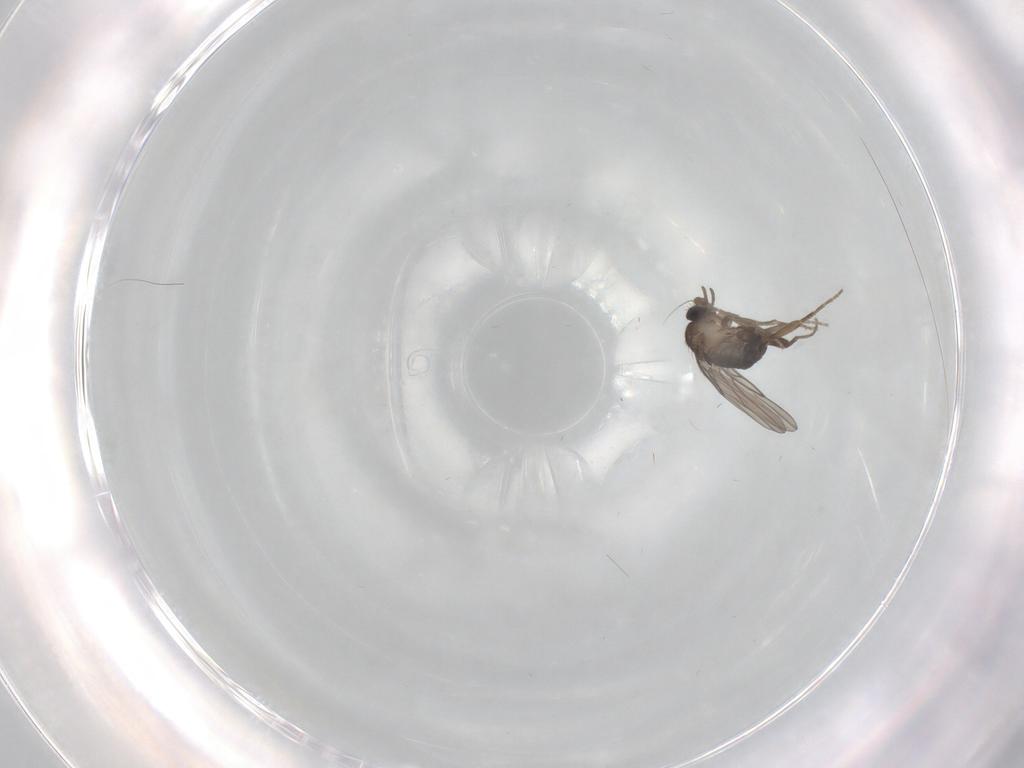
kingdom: Animalia
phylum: Arthropoda
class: Insecta
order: Diptera
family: Phoridae
